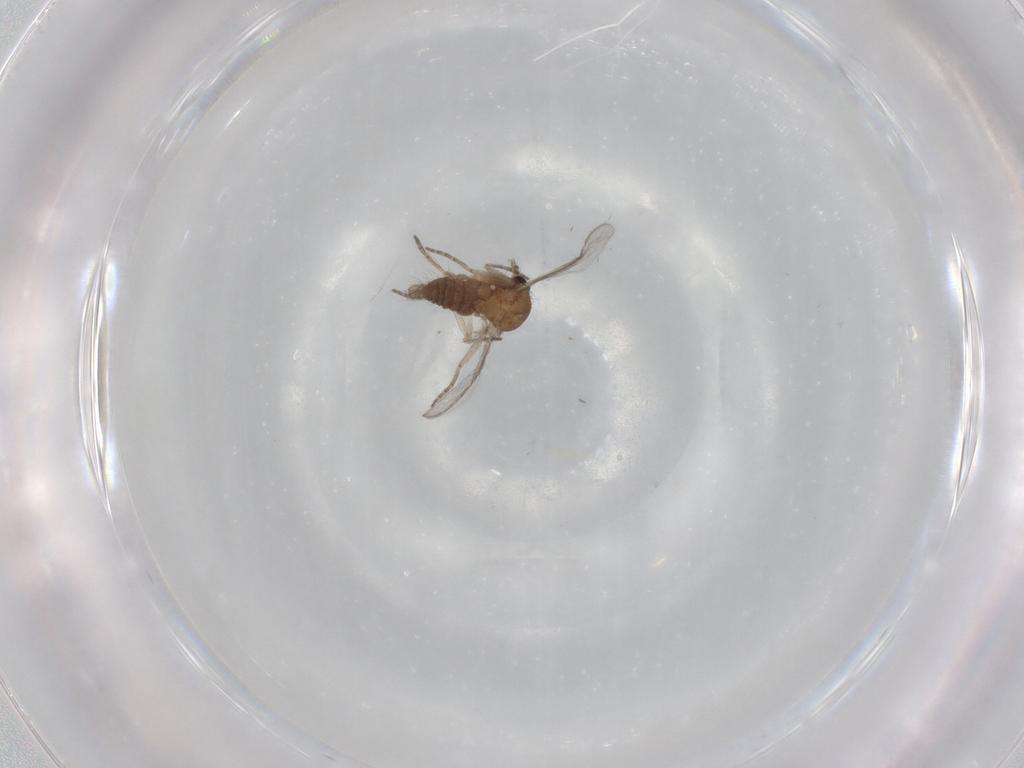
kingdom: Animalia
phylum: Arthropoda
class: Insecta
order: Diptera
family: Ceratopogonidae
